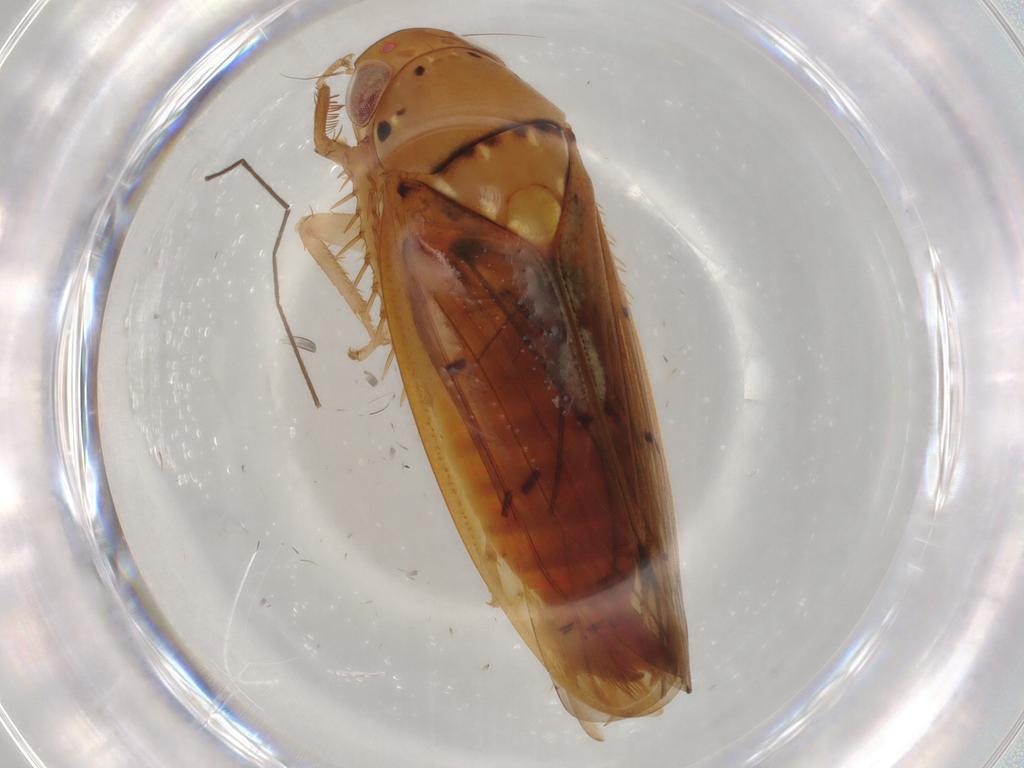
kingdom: Animalia
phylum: Arthropoda
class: Insecta
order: Hemiptera
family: Cicadellidae
